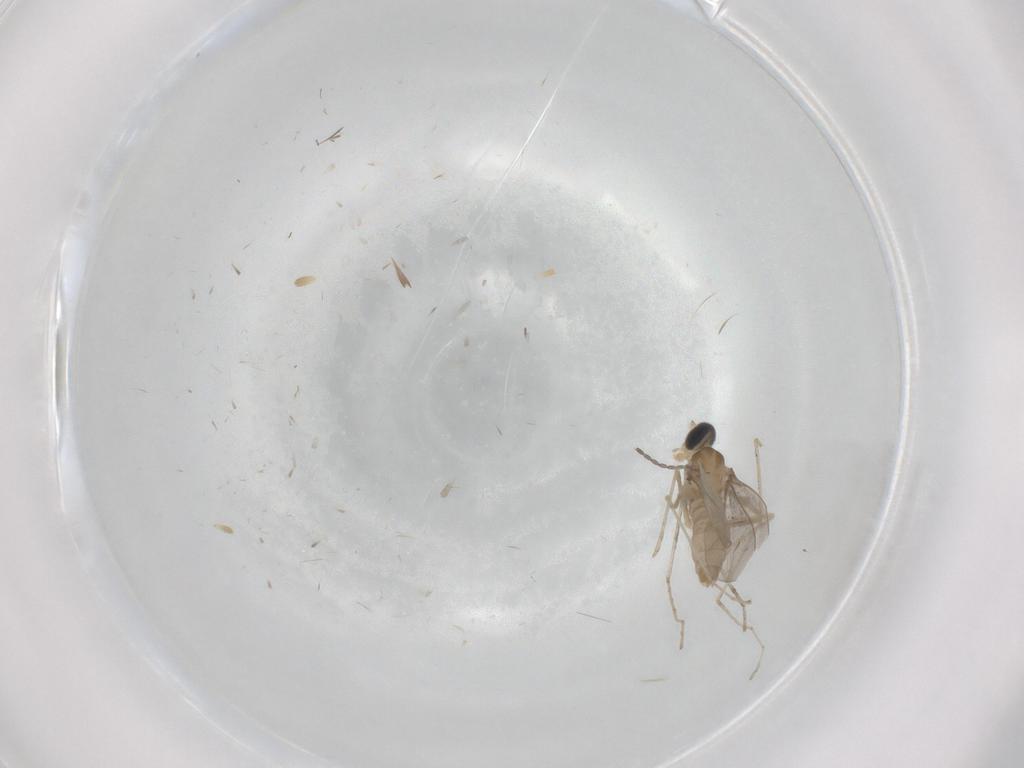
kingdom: Animalia
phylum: Arthropoda
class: Insecta
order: Diptera
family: Cecidomyiidae
